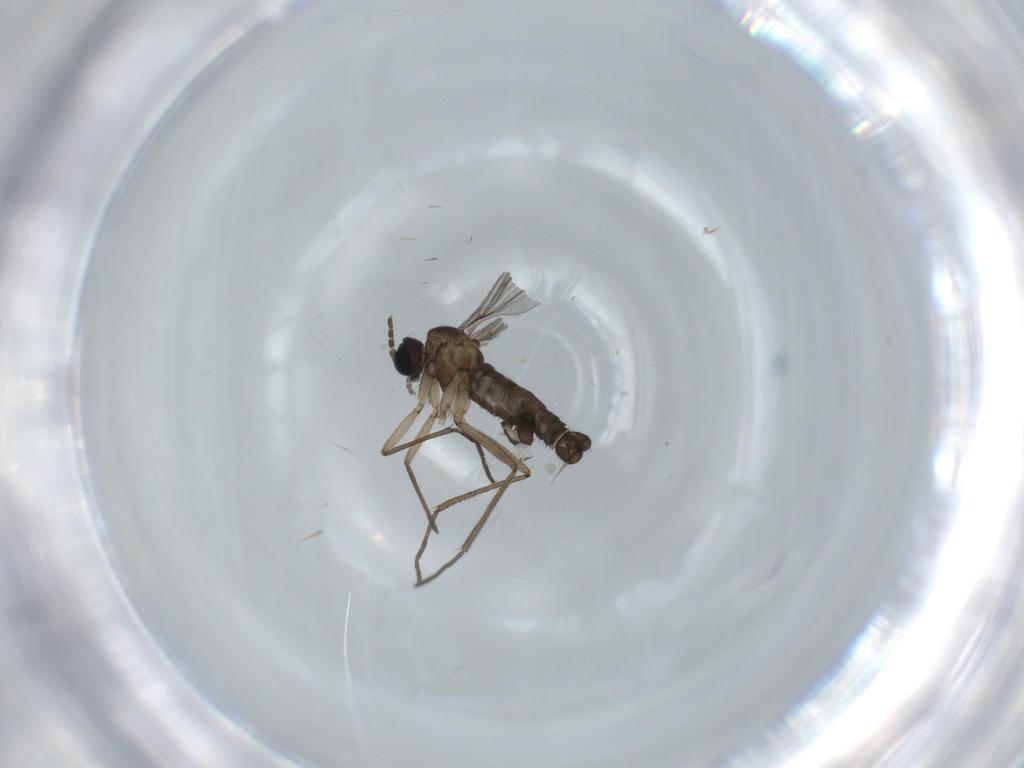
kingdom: Animalia
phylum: Arthropoda
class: Insecta
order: Diptera
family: Sciaridae
